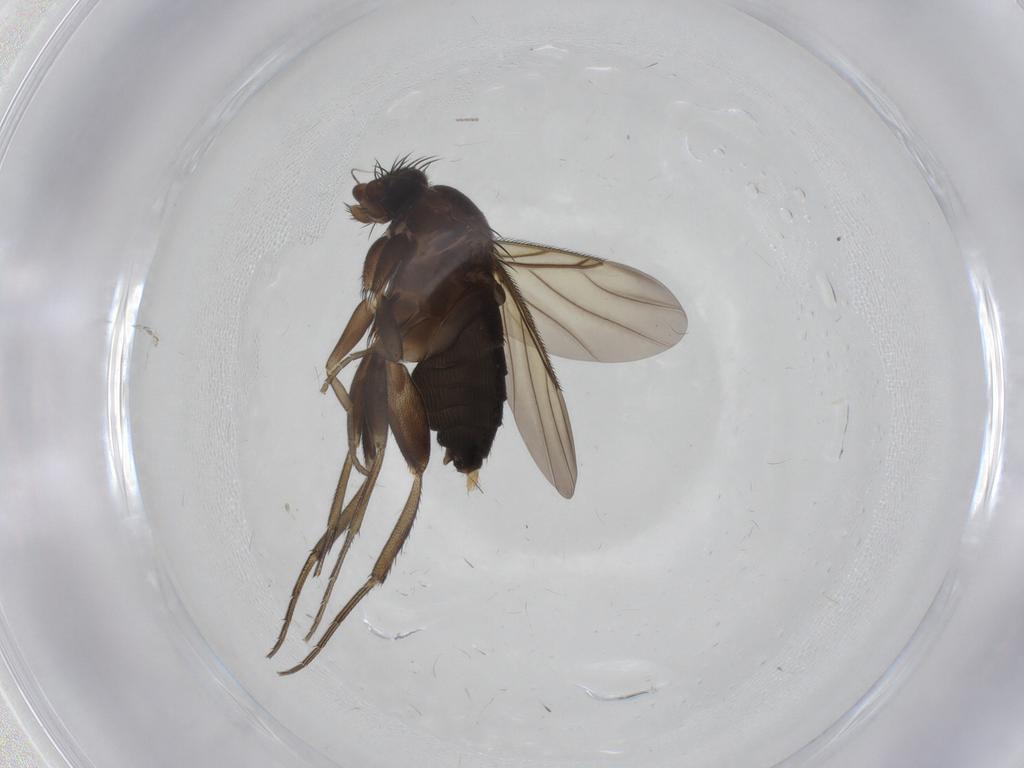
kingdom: Animalia
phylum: Arthropoda
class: Insecta
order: Diptera
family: Phoridae
